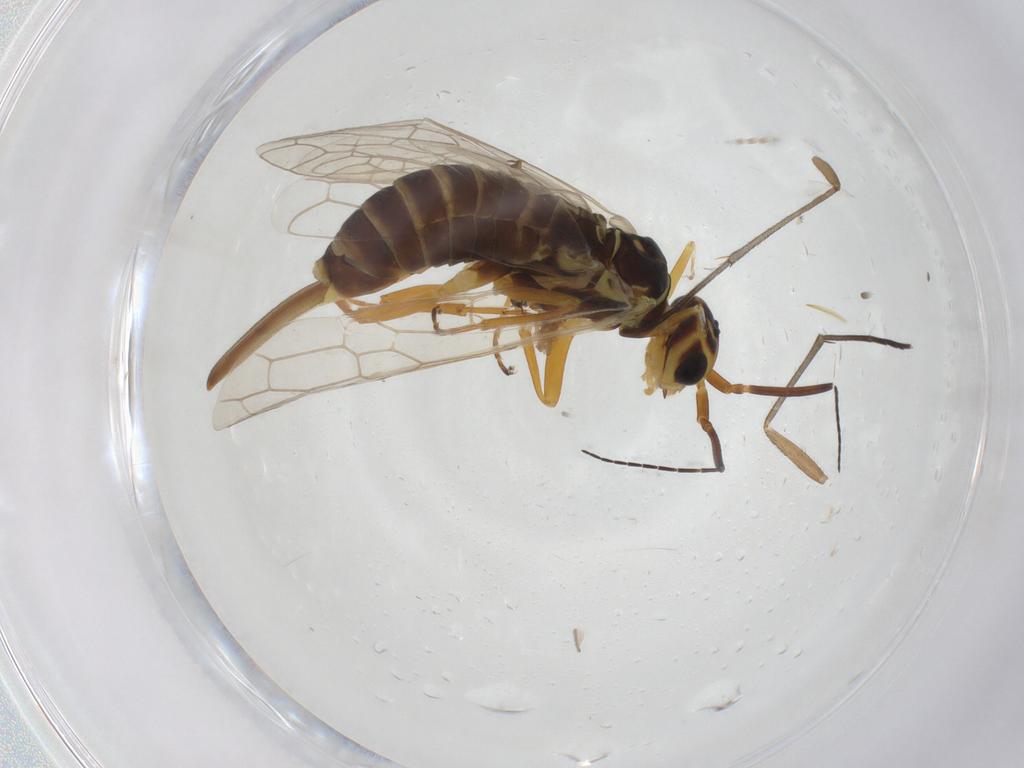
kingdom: Animalia
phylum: Arthropoda
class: Insecta
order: Hymenoptera
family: Xyelidae
